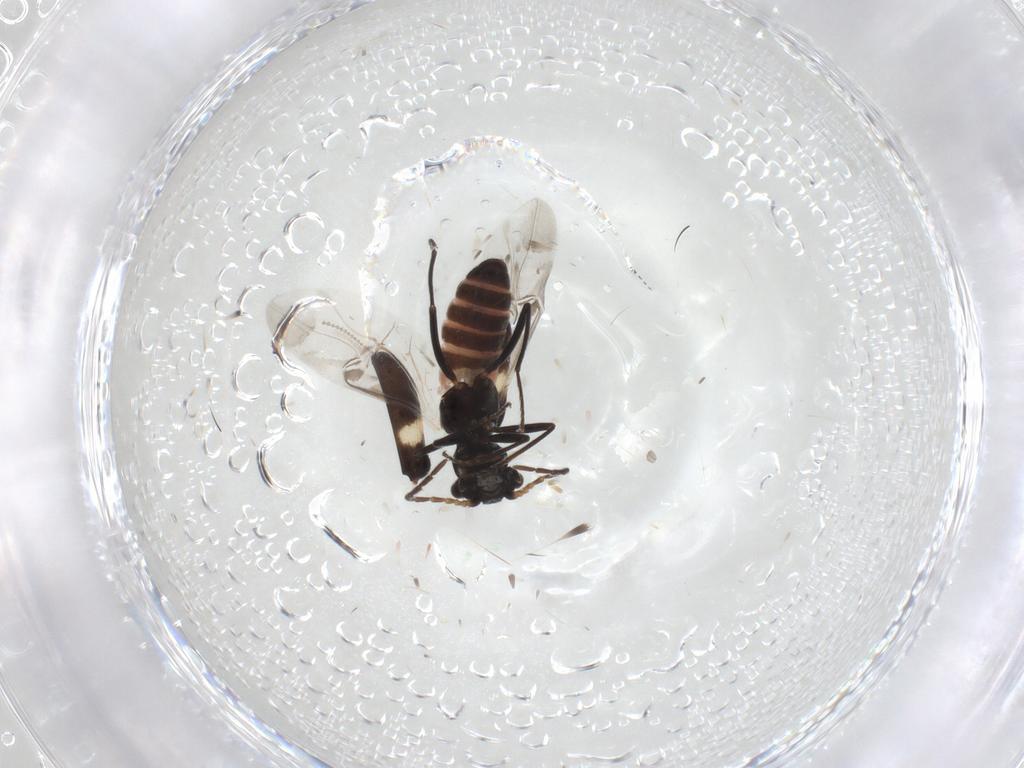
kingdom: Animalia
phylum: Arthropoda
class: Insecta
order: Coleoptera
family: Melyridae
